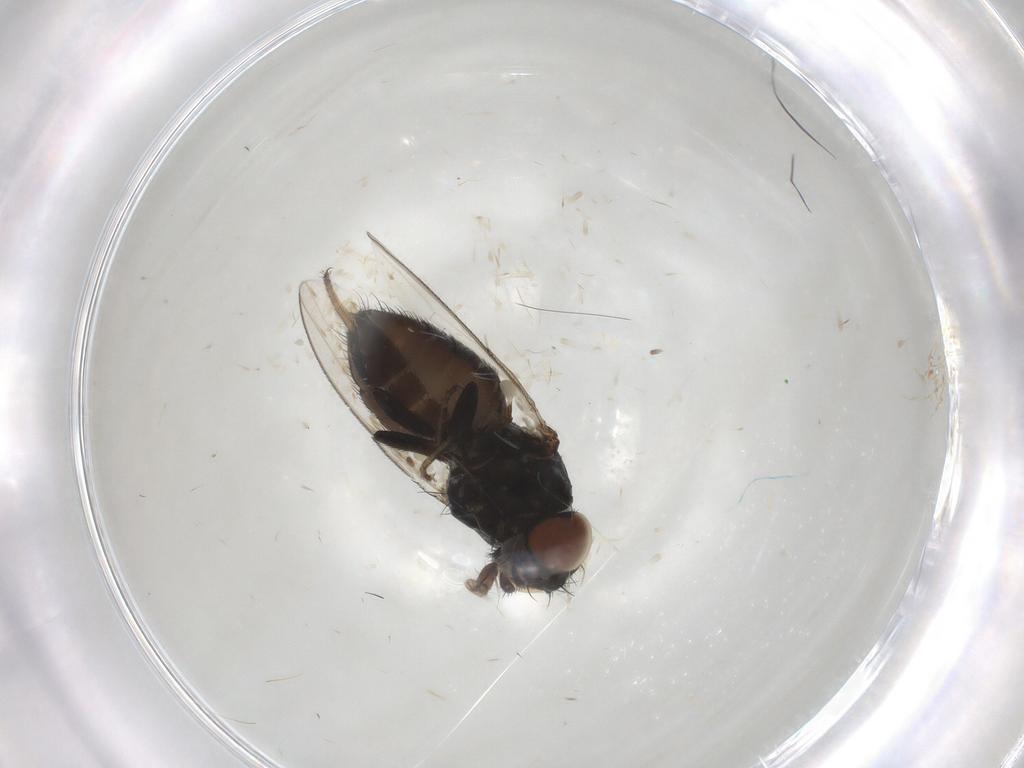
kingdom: Animalia
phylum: Arthropoda
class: Insecta
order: Diptera
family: Milichiidae
